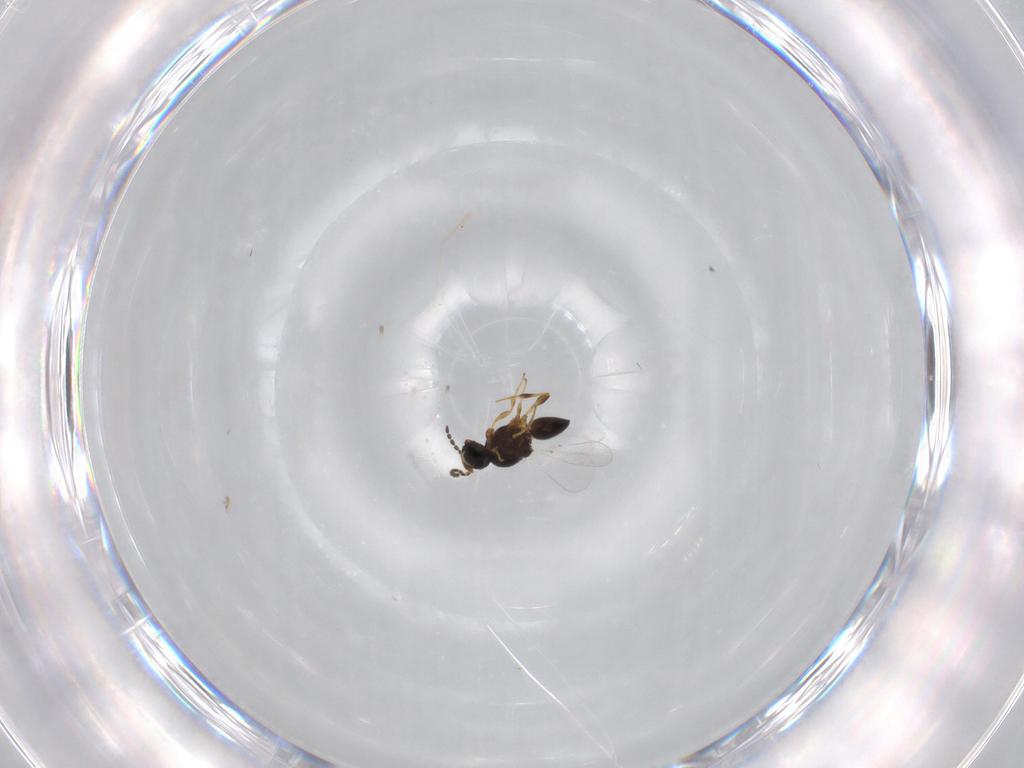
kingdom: Animalia
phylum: Arthropoda
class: Insecta
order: Hymenoptera
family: Platygastridae
